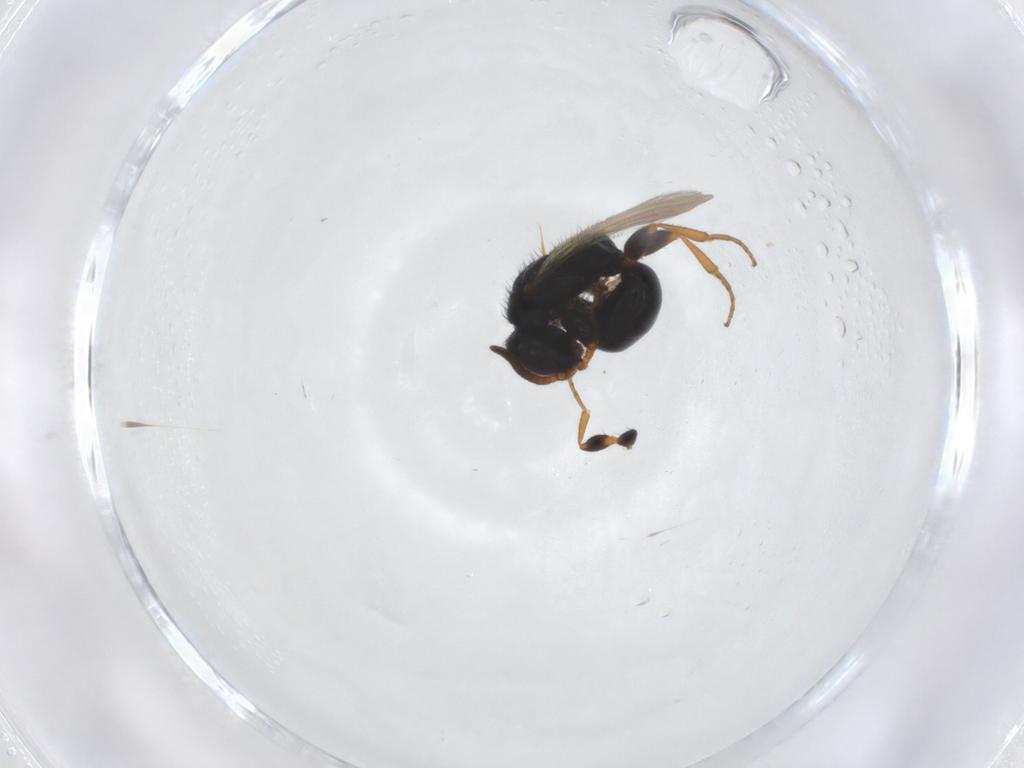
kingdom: Animalia
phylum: Arthropoda
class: Insecta
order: Hymenoptera
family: Bethylidae
